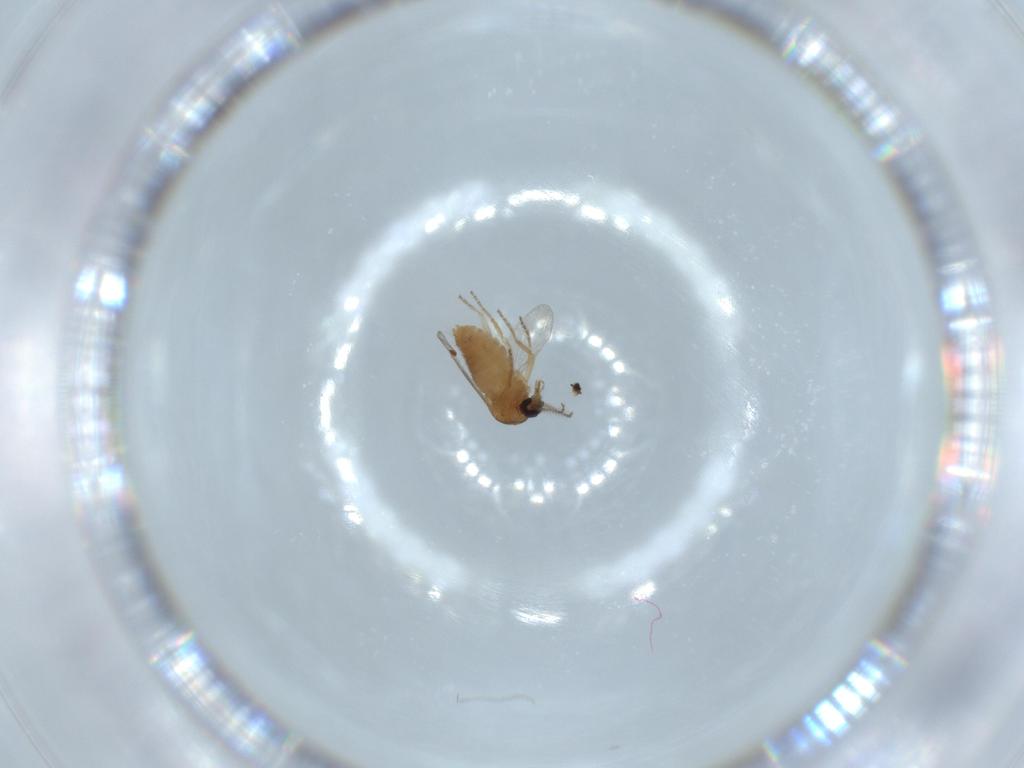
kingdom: Animalia
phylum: Arthropoda
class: Insecta
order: Diptera
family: Ceratopogonidae
